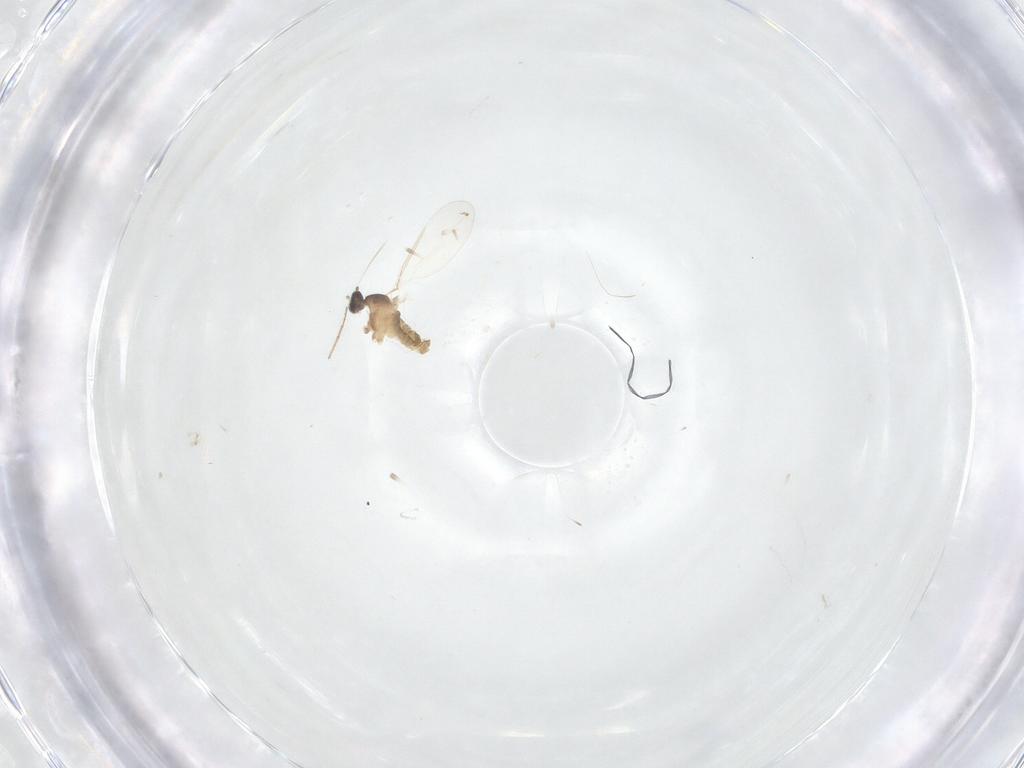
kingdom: Animalia
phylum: Arthropoda
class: Insecta
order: Diptera
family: Cecidomyiidae
